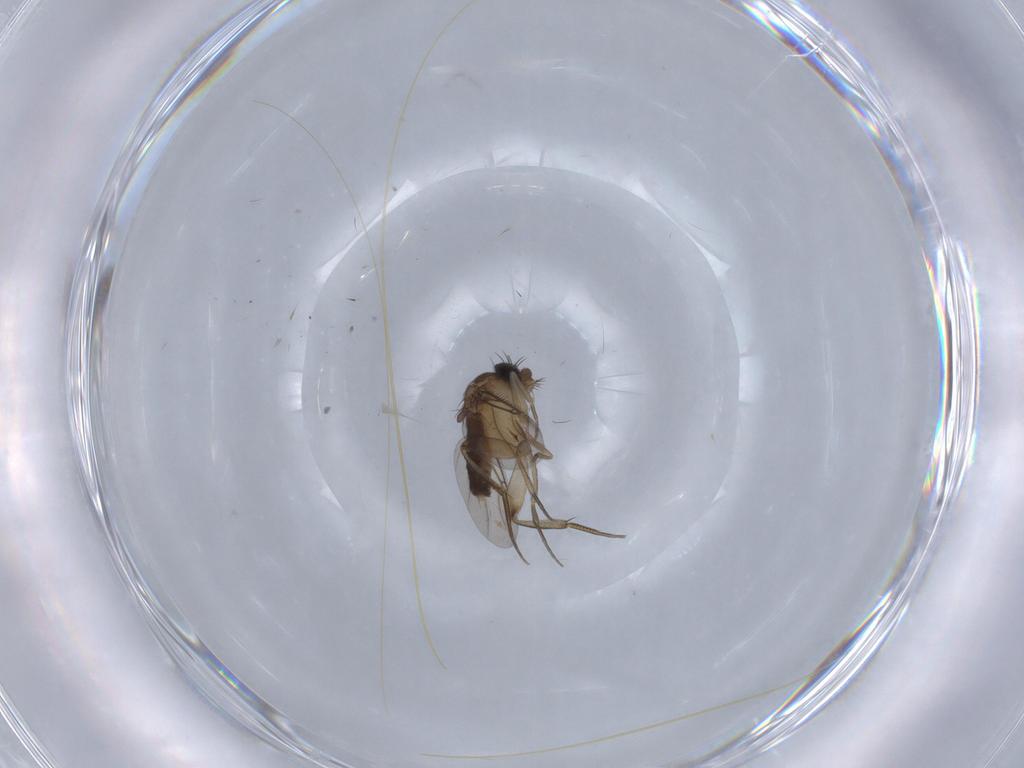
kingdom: Animalia
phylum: Arthropoda
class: Insecta
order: Diptera
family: Phoridae
